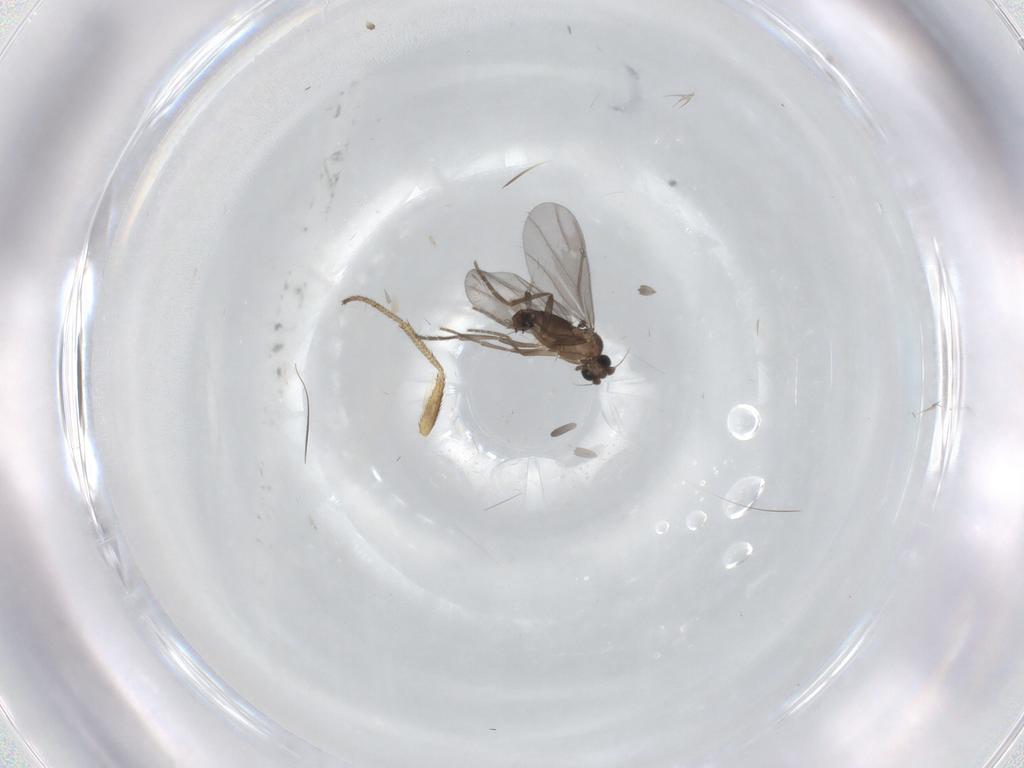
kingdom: Animalia
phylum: Arthropoda
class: Insecta
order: Diptera
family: Phoridae
